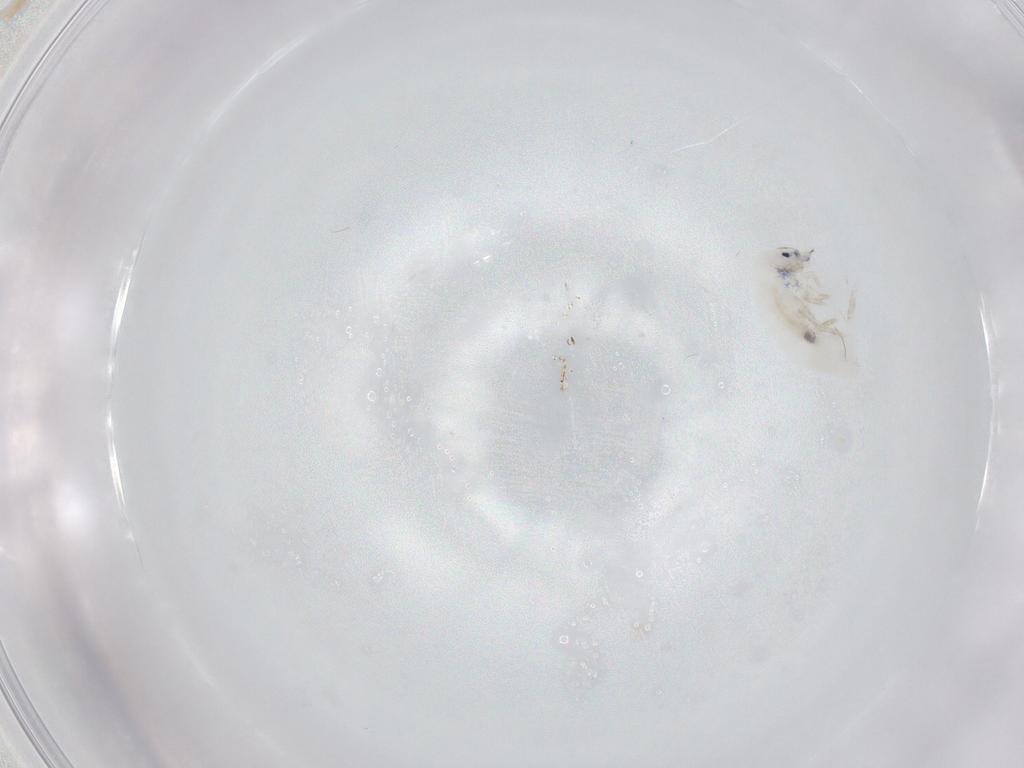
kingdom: Animalia
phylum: Arthropoda
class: Collembola
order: Entomobryomorpha
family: Entomobryidae
